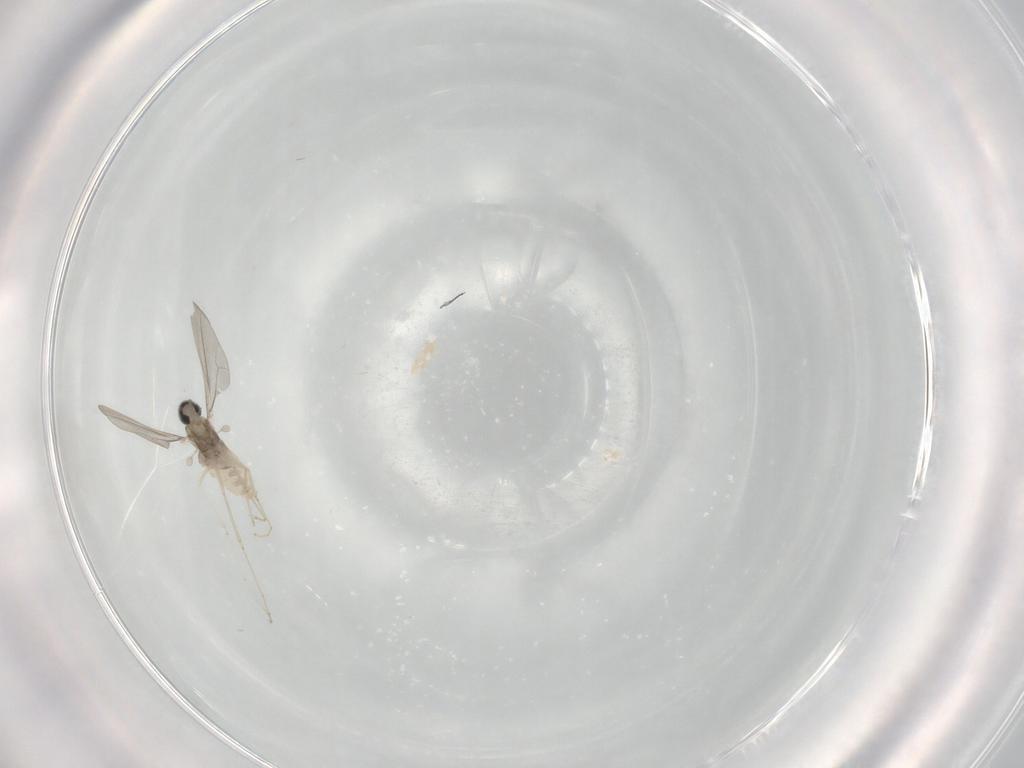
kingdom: Animalia
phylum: Arthropoda
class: Insecta
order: Diptera
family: Cecidomyiidae
